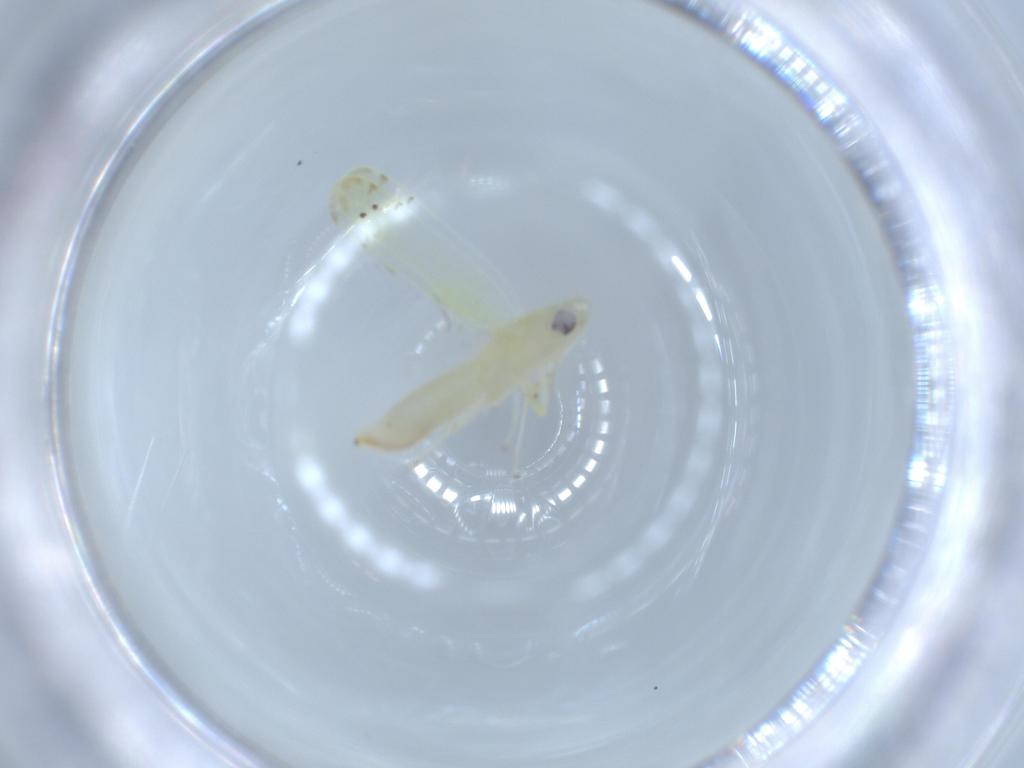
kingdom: Animalia
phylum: Arthropoda
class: Insecta
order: Hemiptera
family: Cicadellidae
